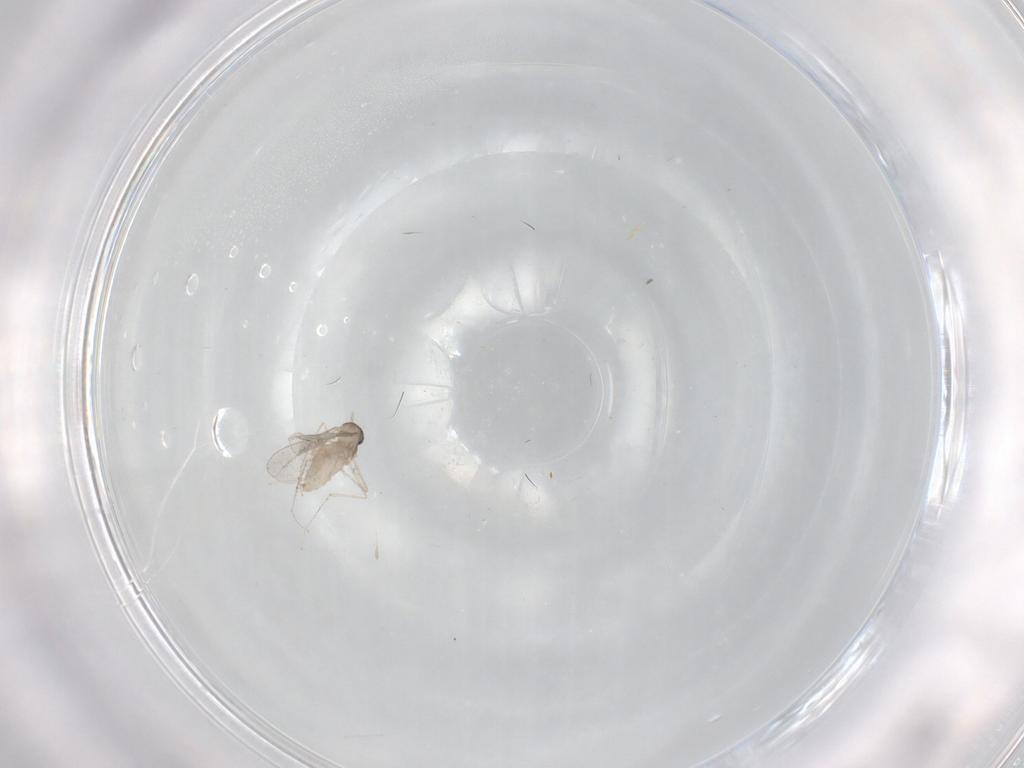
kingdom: Animalia
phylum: Arthropoda
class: Insecta
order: Diptera
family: Cecidomyiidae
